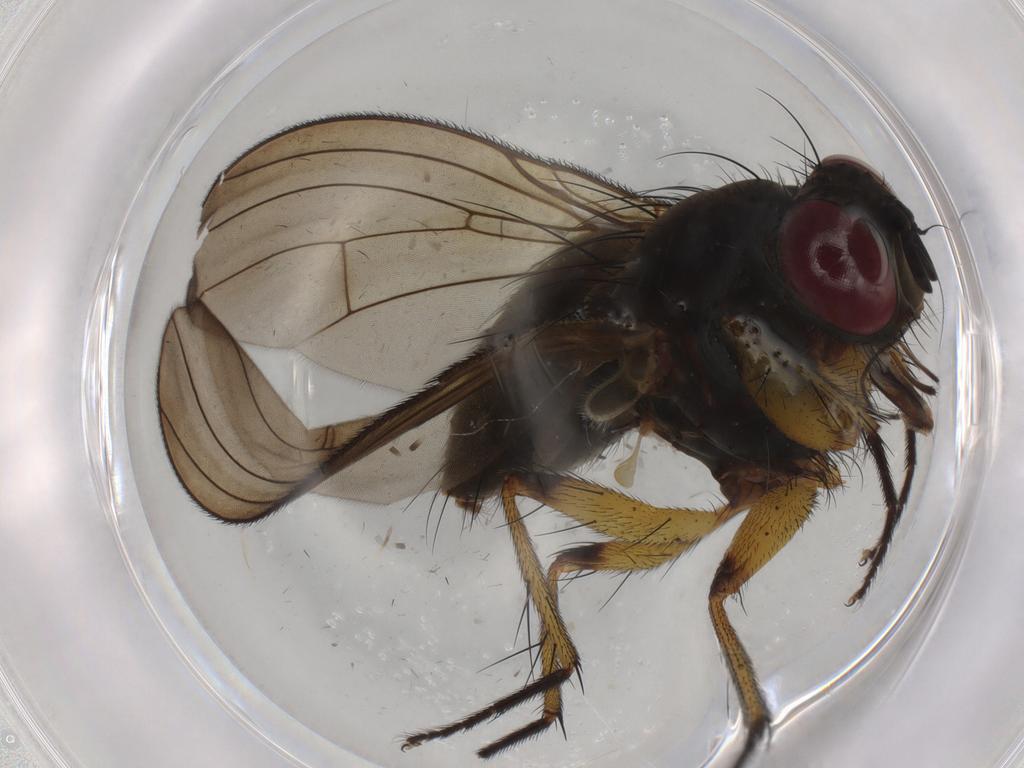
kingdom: Animalia
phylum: Arthropoda
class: Insecta
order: Diptera
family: Muscidae
